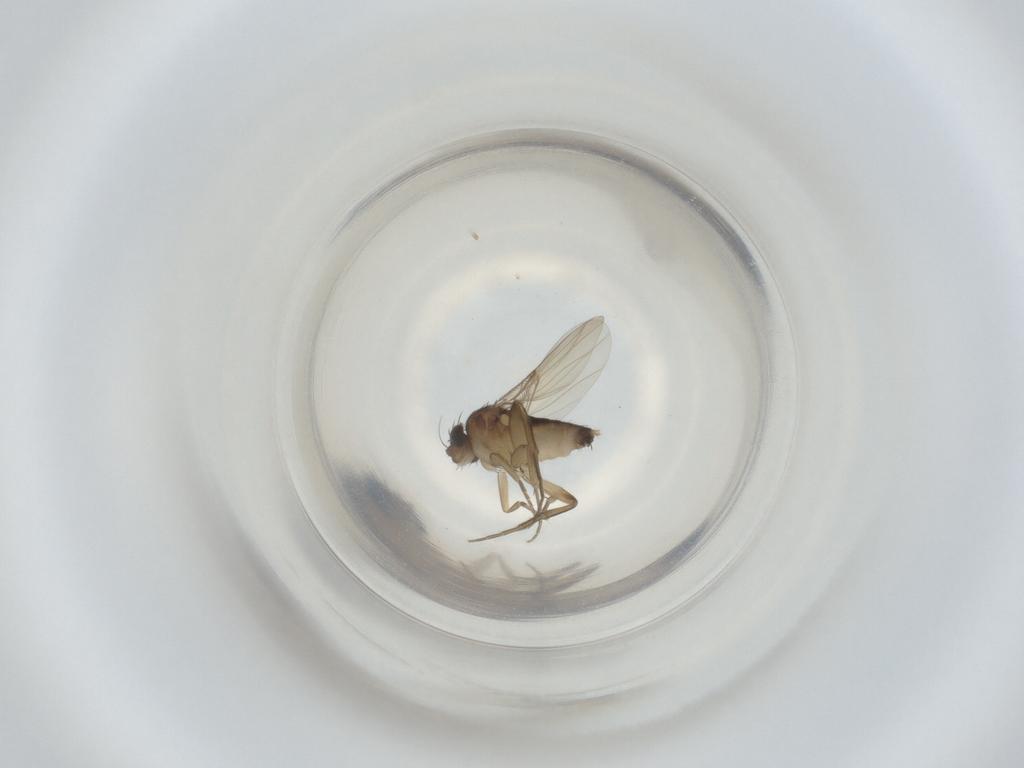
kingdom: Animalia
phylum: Arthropoda
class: Insecta
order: Diptera
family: Phoridae
